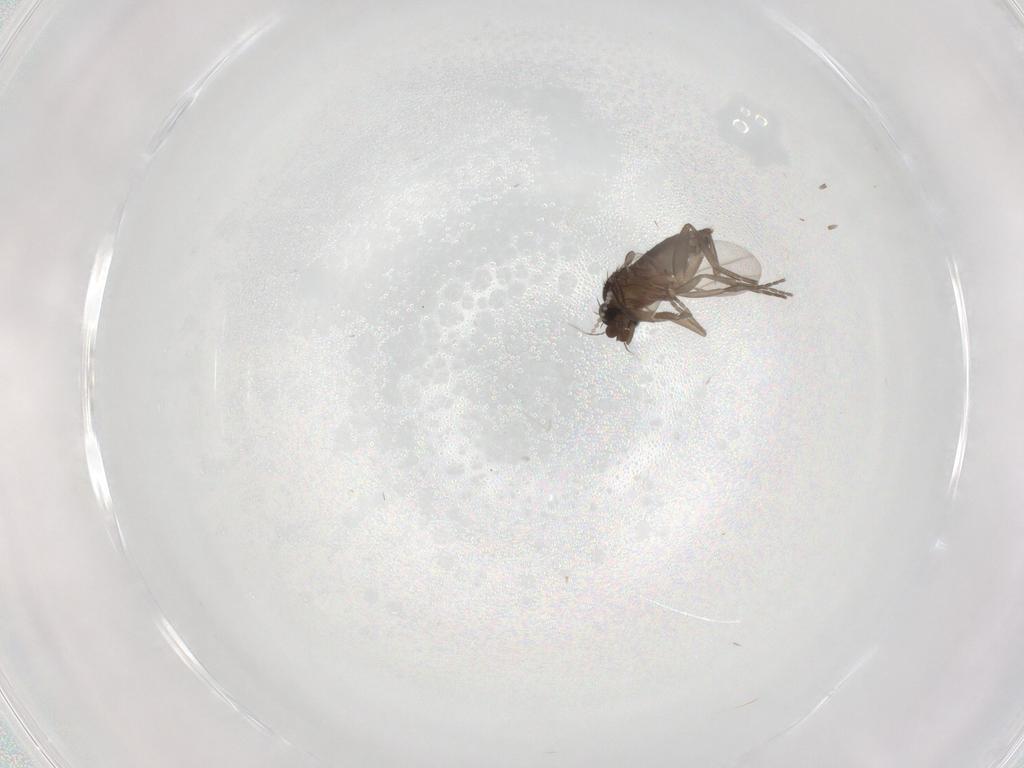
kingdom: Animalia
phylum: Arthropoda
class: Insecta
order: Diptera
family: Phoridae
